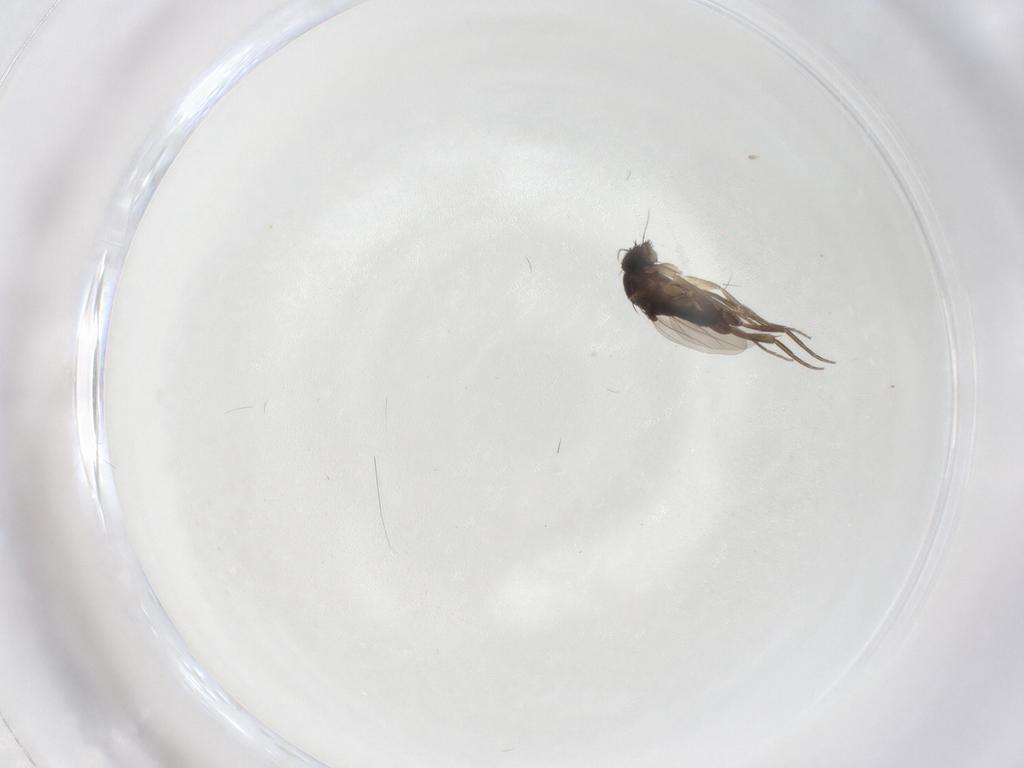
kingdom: Animalia
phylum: Arthropoda
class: Insecta
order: Diptera
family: Phoridae
